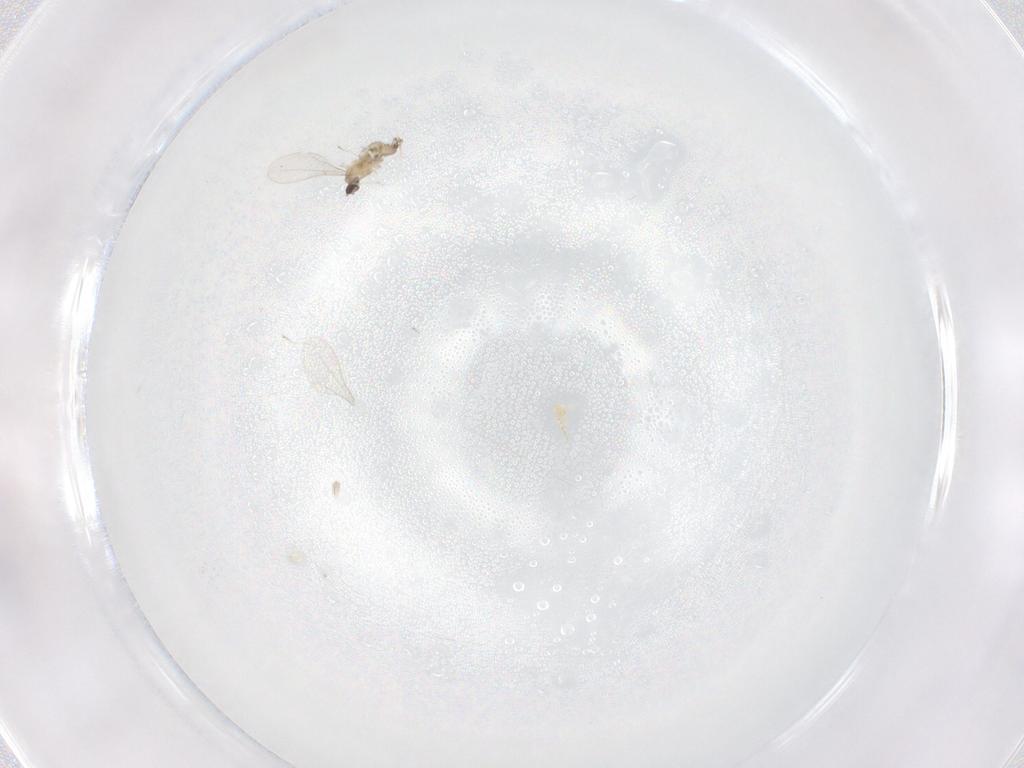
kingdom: Animalia
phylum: Arthropoda
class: Insecta
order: Diptera
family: Cecidomyiidae
